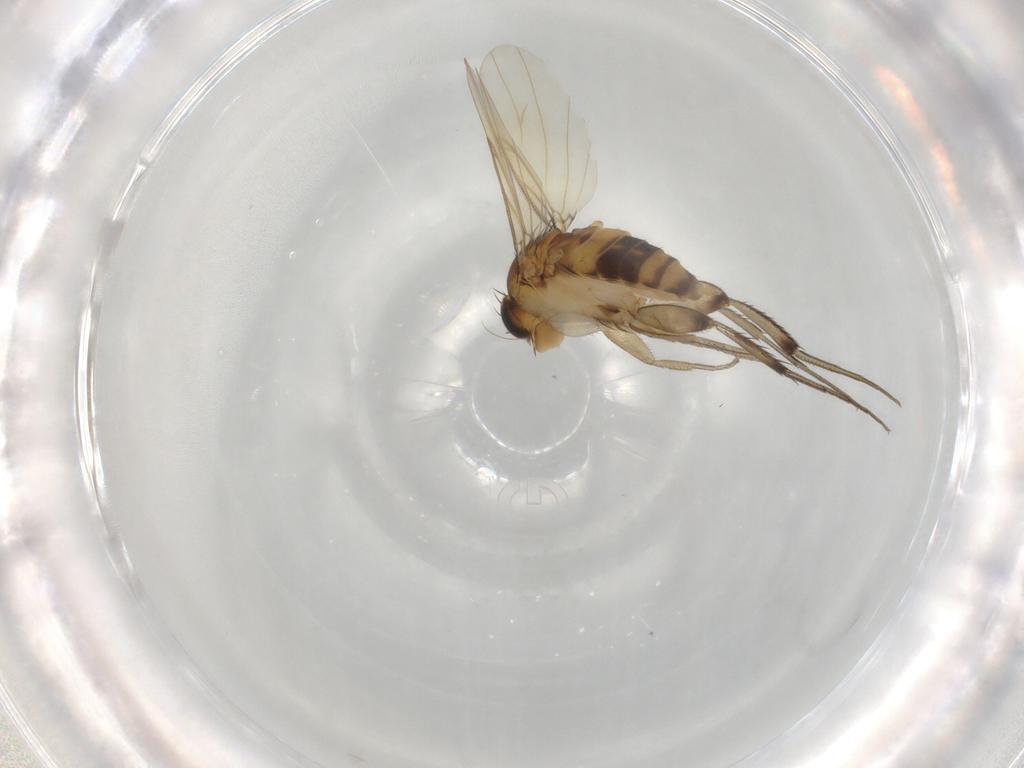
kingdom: Animalia
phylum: Arthropoda
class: Insecta
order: Diptera
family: Phoridae
